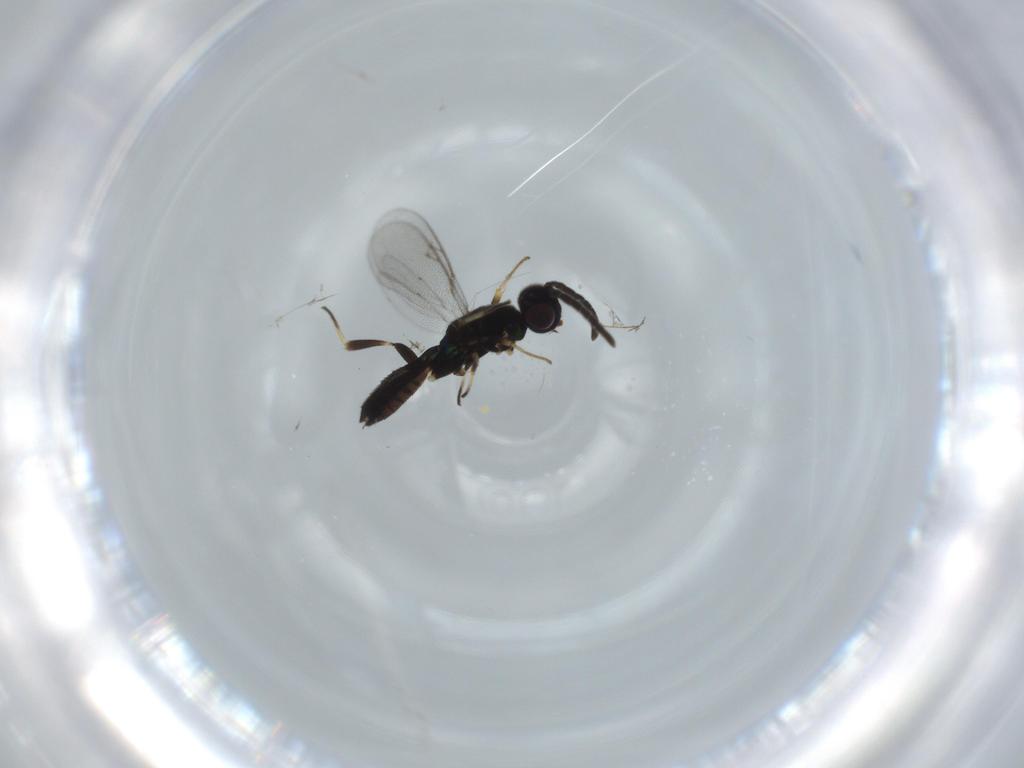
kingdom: Animalia
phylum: Arthropoda
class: Insecta
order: Hymenoptera
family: Eupelmidae
